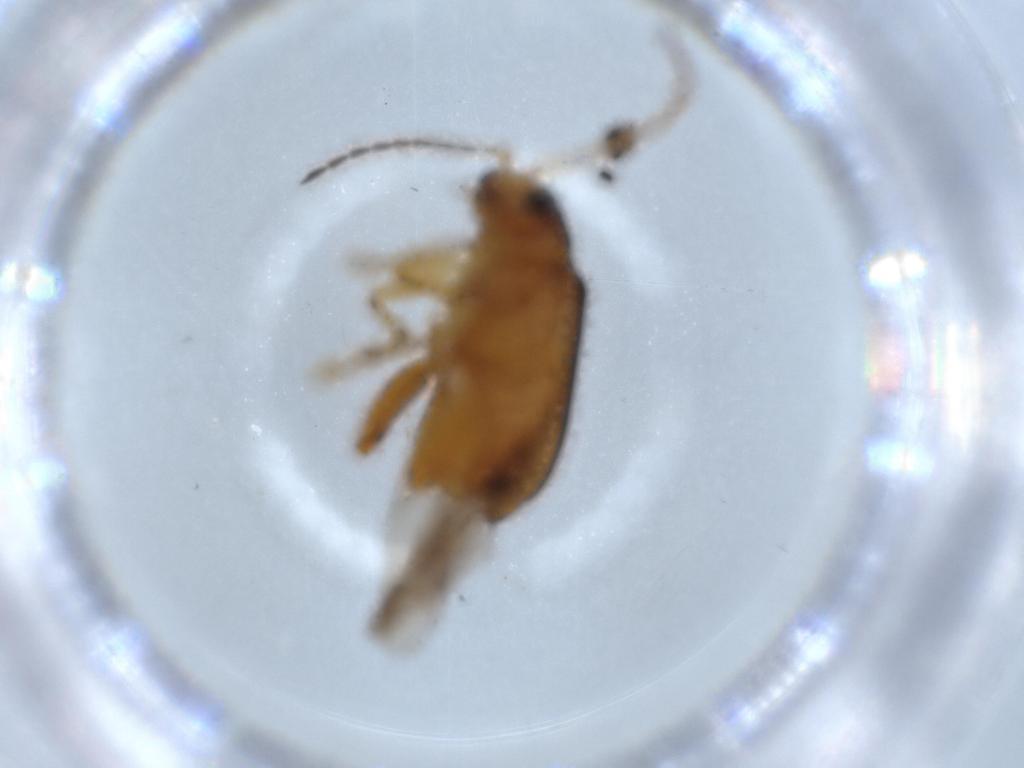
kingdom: Animalia
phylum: Arthropoda
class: Insecta
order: Coleoptera
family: Chrysomelidae
